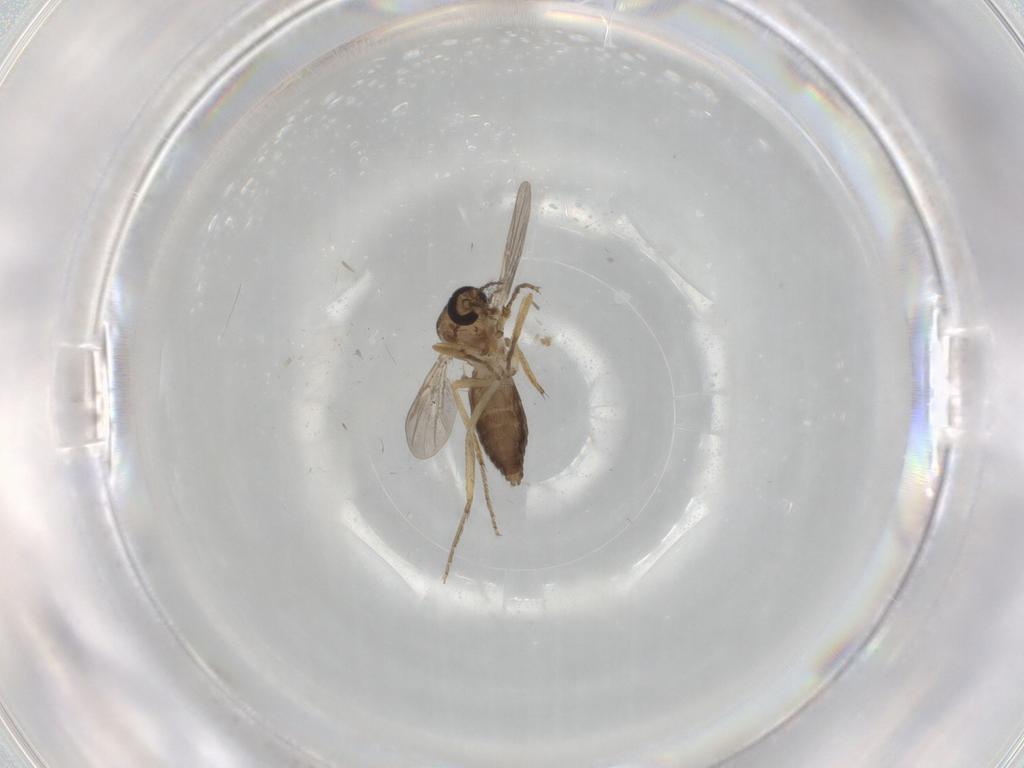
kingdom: Animalia
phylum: Arthropoda
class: Insecta
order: Diptera
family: Ceratopogonidae
